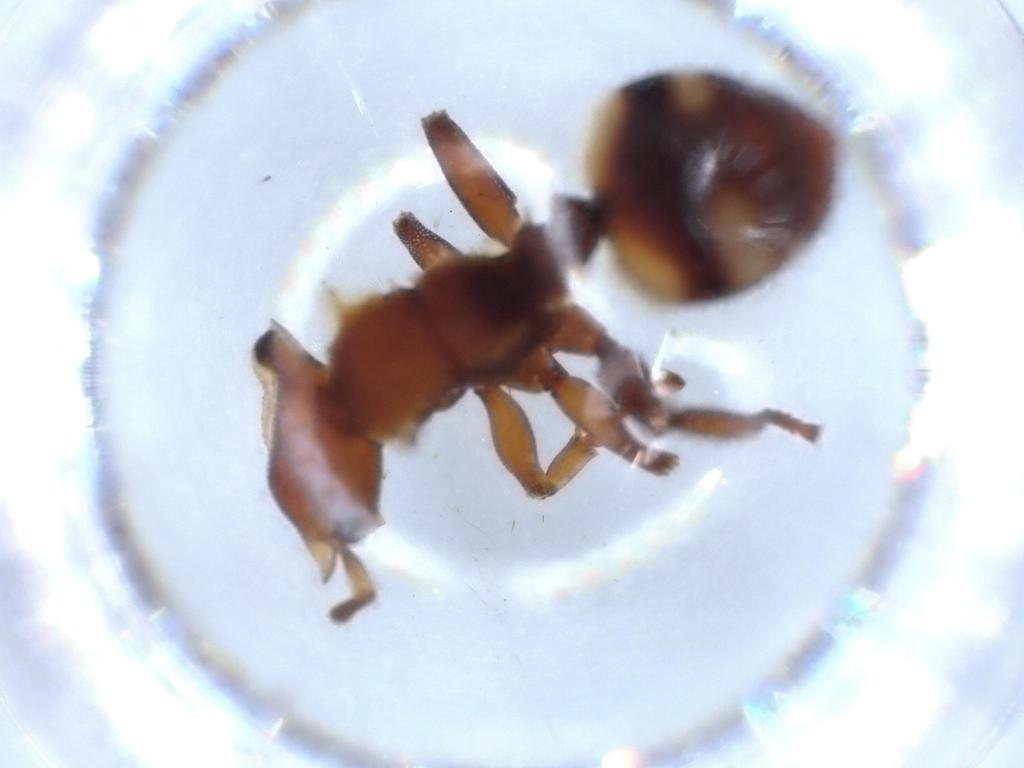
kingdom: Animalia
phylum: Arthropoda
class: Insecta
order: Hymenoptera
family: Formicidae
